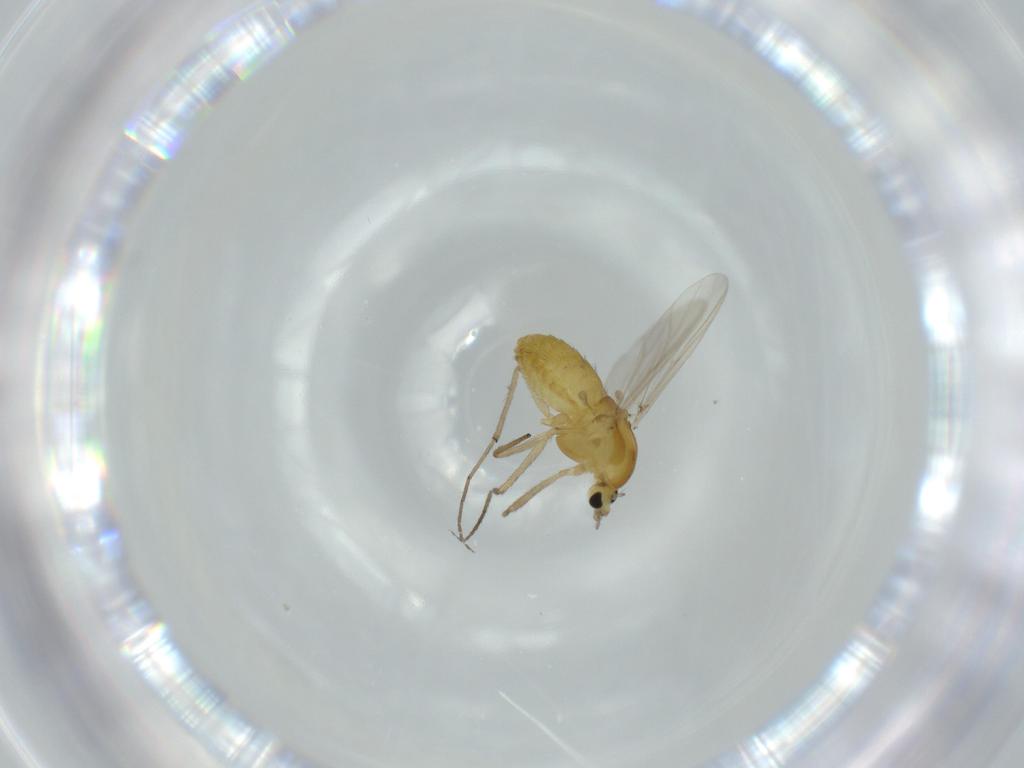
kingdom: Animalia
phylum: Arthropoda
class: Insecta
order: Diptera
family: Chironomidae
